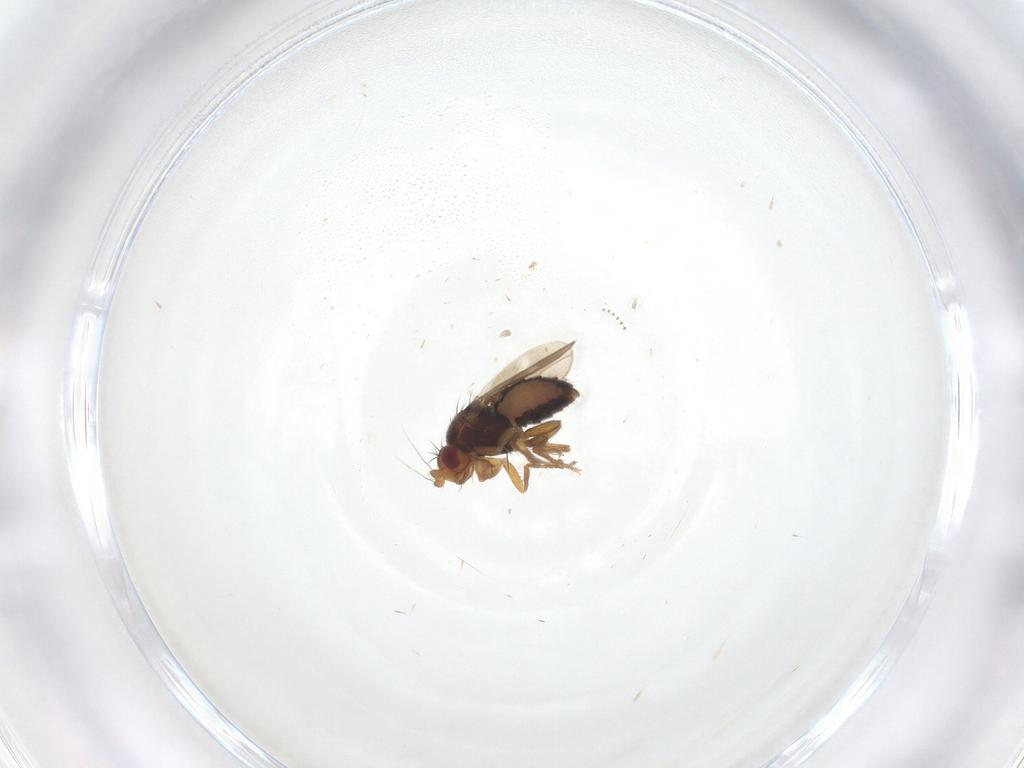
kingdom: Animalia
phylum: Arthropoda
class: Insecta
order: Diptera
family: Sphaeroceridae
